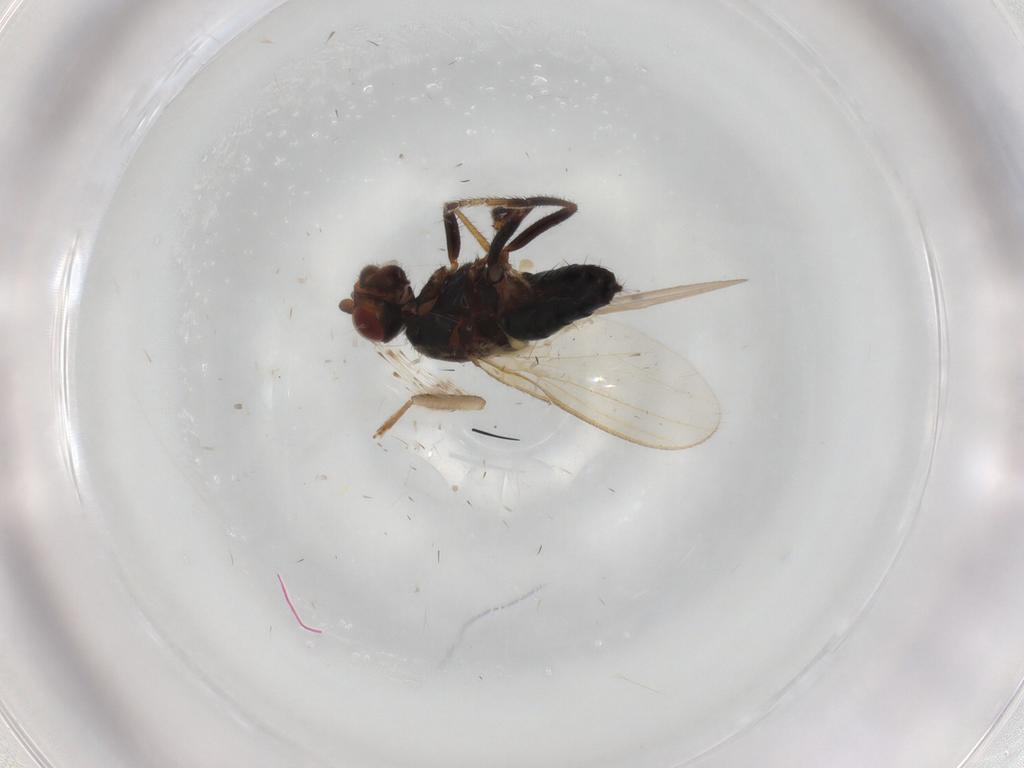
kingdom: Animalia
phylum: Arthropoda
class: Insecta
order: Diptera
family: Sphaeroceridae
